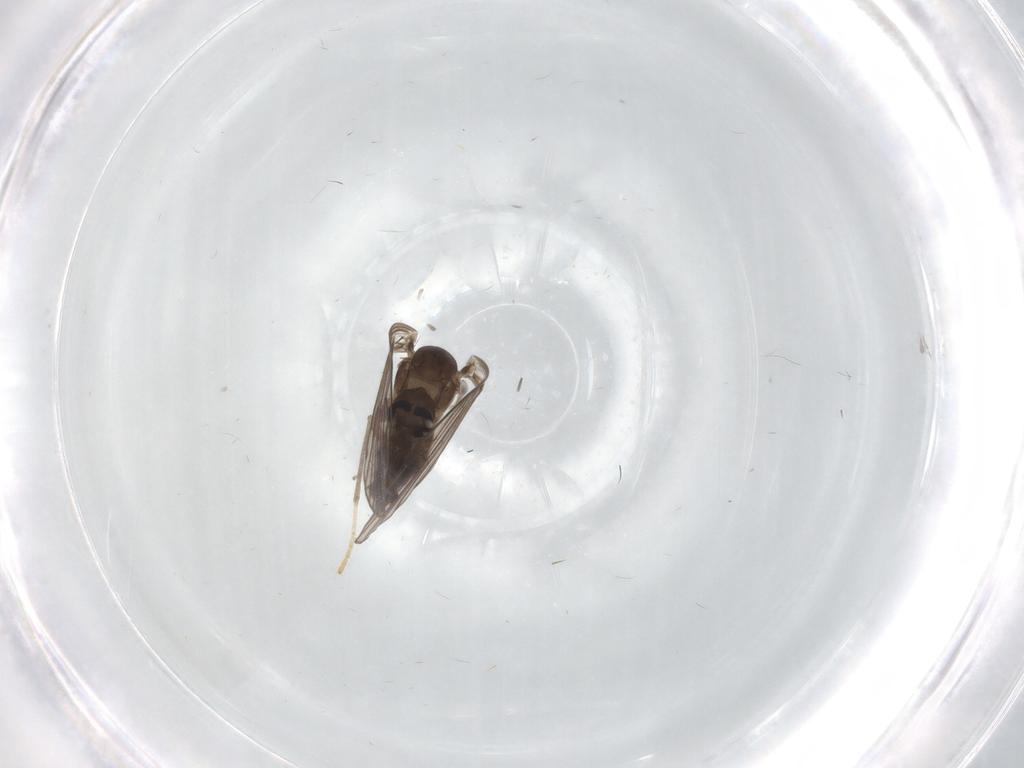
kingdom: Animalia
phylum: Arthropoda
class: Insecta
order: Diptera
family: Psychodidae
